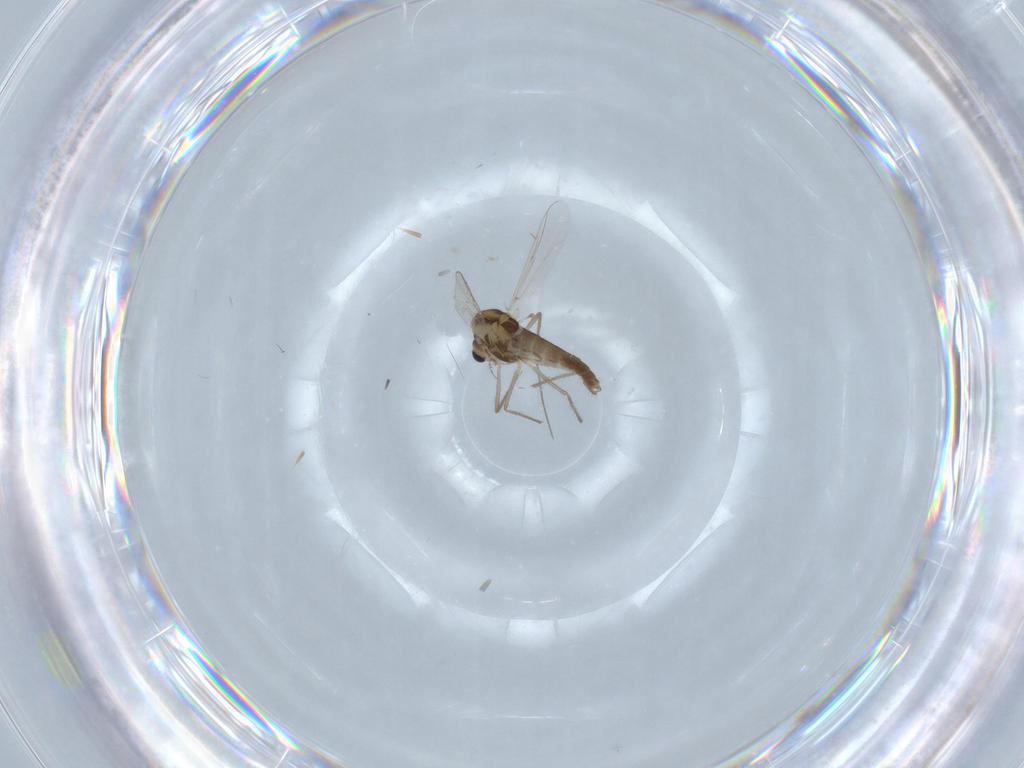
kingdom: Animalia
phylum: Arthropoda
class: Insecta
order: Diptera
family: Chironomidae
